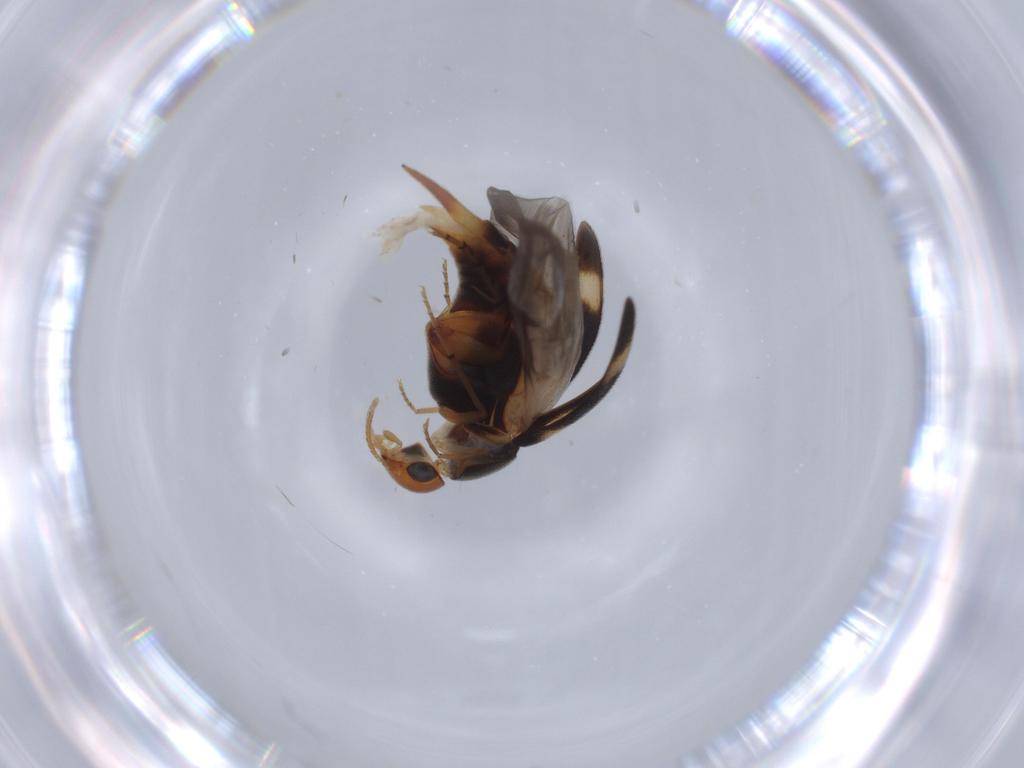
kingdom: Animalia
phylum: Arthropoda
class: Insecta
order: Coleoptera
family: Mordellidae
